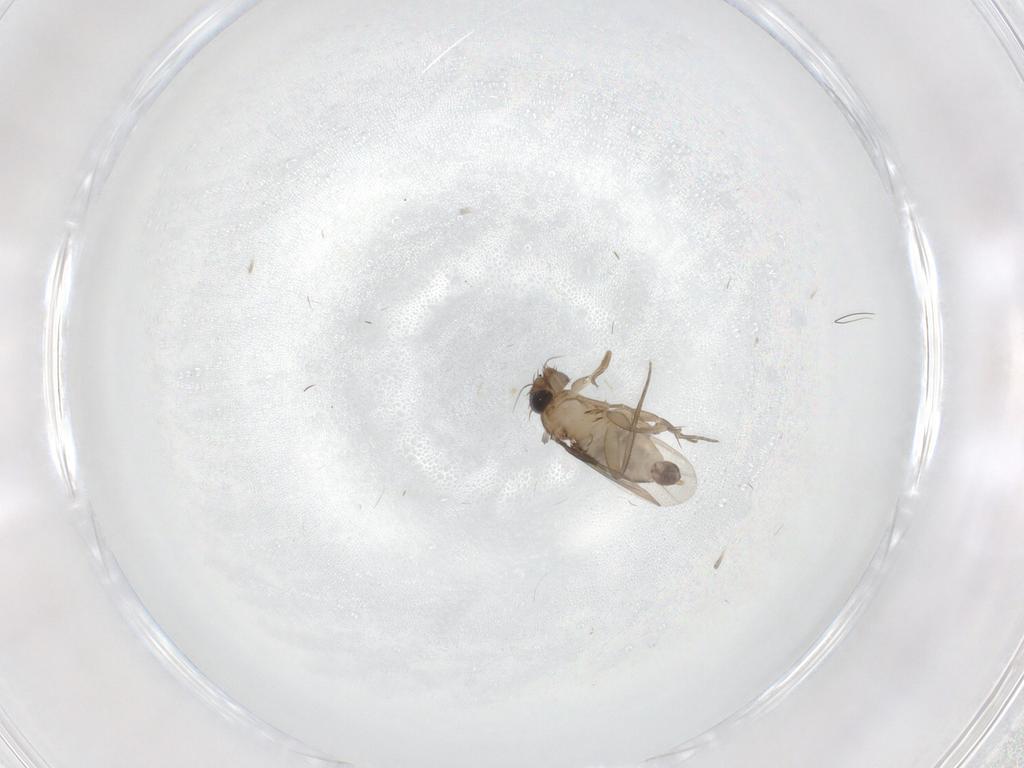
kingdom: Animalia
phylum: Arthropoda
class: Insecta
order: Diptera
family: Phoridae
